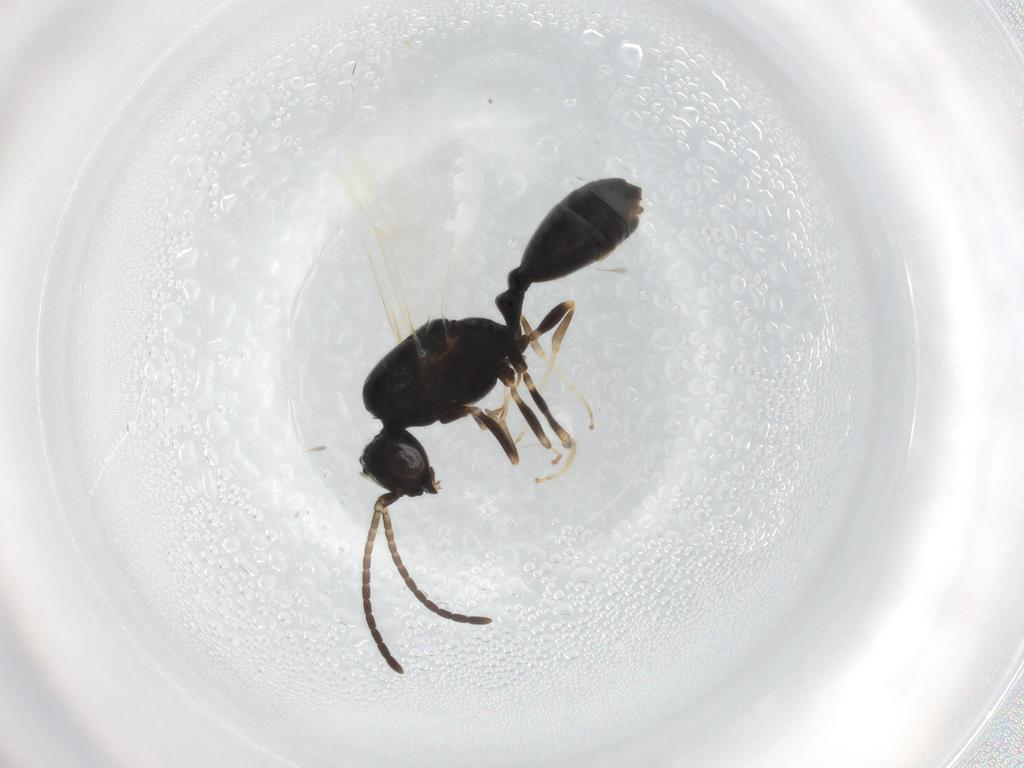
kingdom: Animalia
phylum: Arthropoda
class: Insecta
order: Hymenoptera
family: Formicidae
